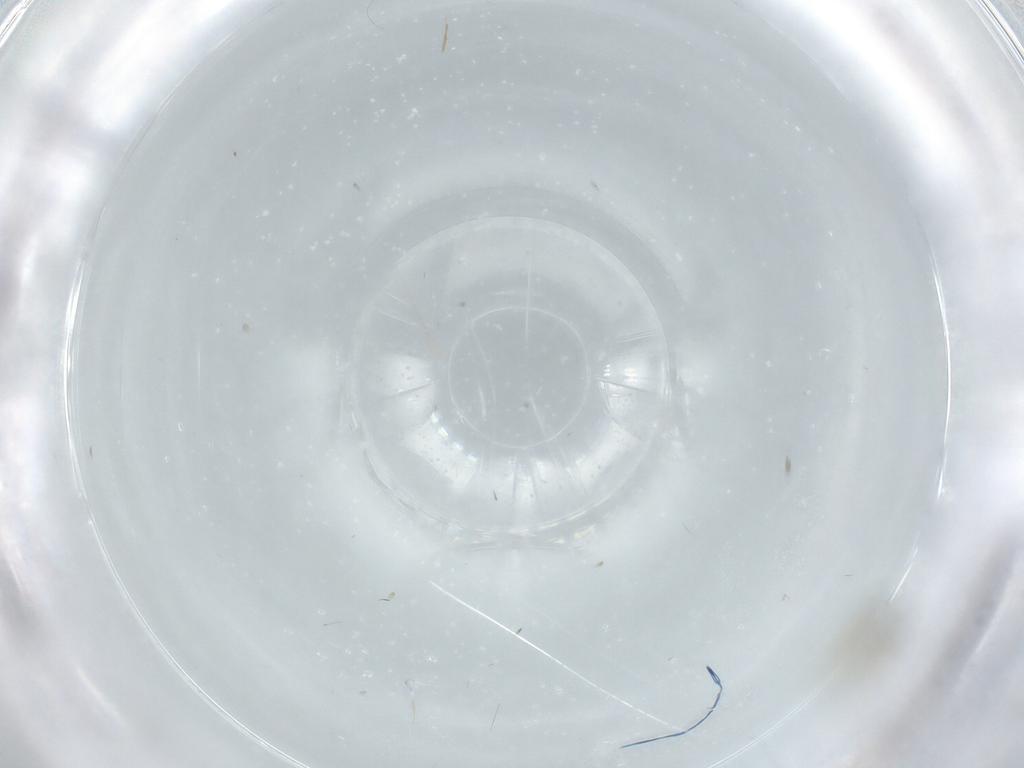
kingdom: Animalia
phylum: Arthropoda
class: Insecta
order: Diptera
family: Cecidomyiidae
